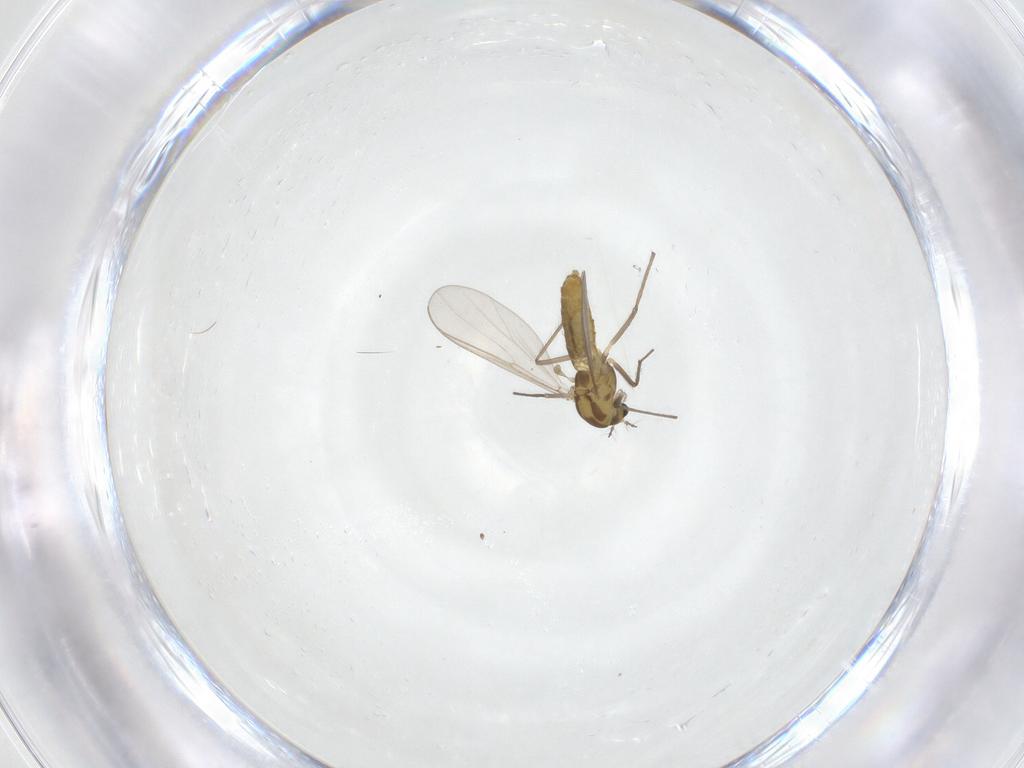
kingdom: Animalia
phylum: Arthropoda
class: Insecta
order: Diptera
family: Chironomidae
